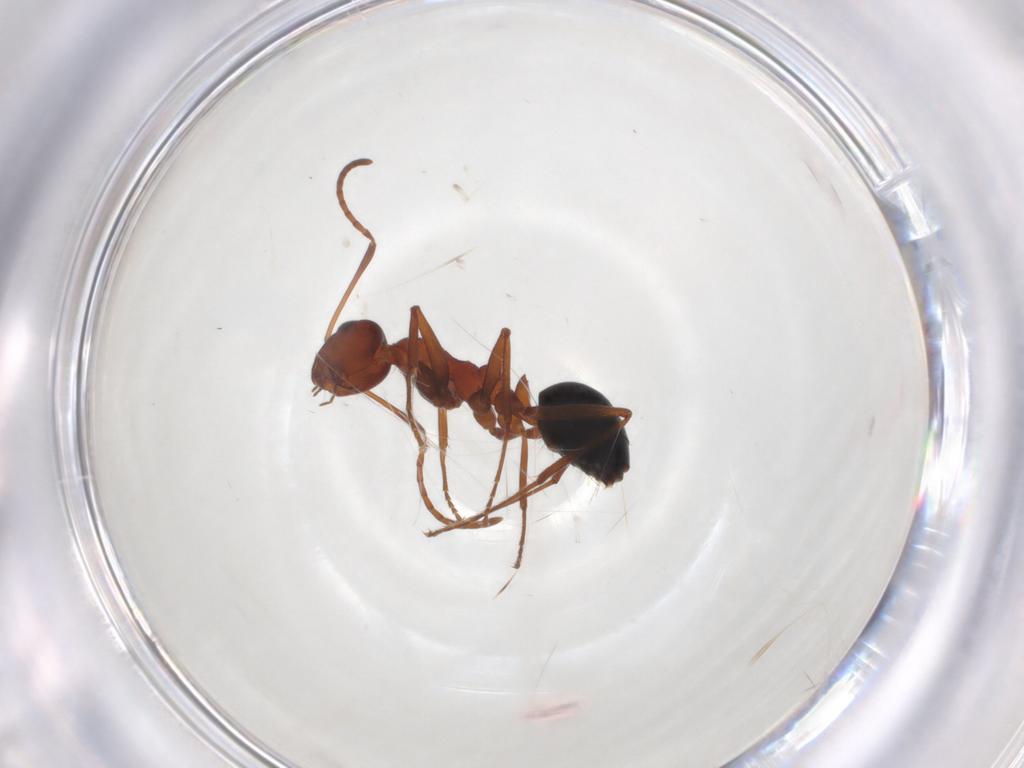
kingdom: Animalia
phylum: Arthropoda
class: Insecta
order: Hymenoptera
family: Formicidae
